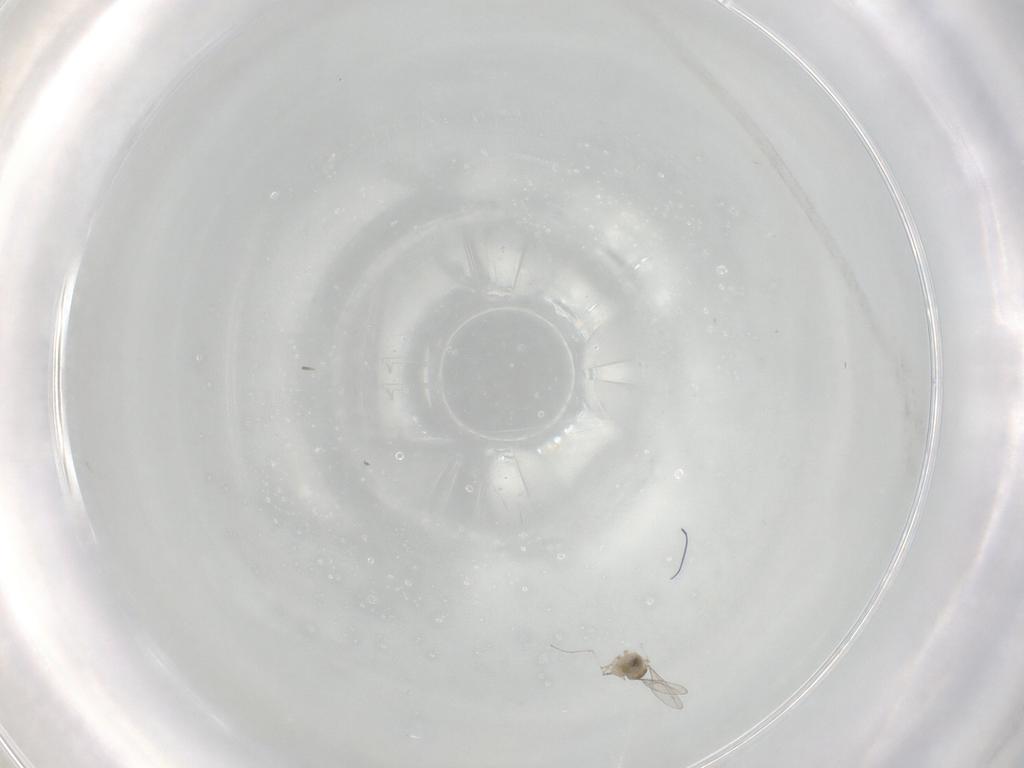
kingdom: Animalia
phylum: Arthropoda
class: Insecta
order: Diptera
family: Cecidomyiidae
